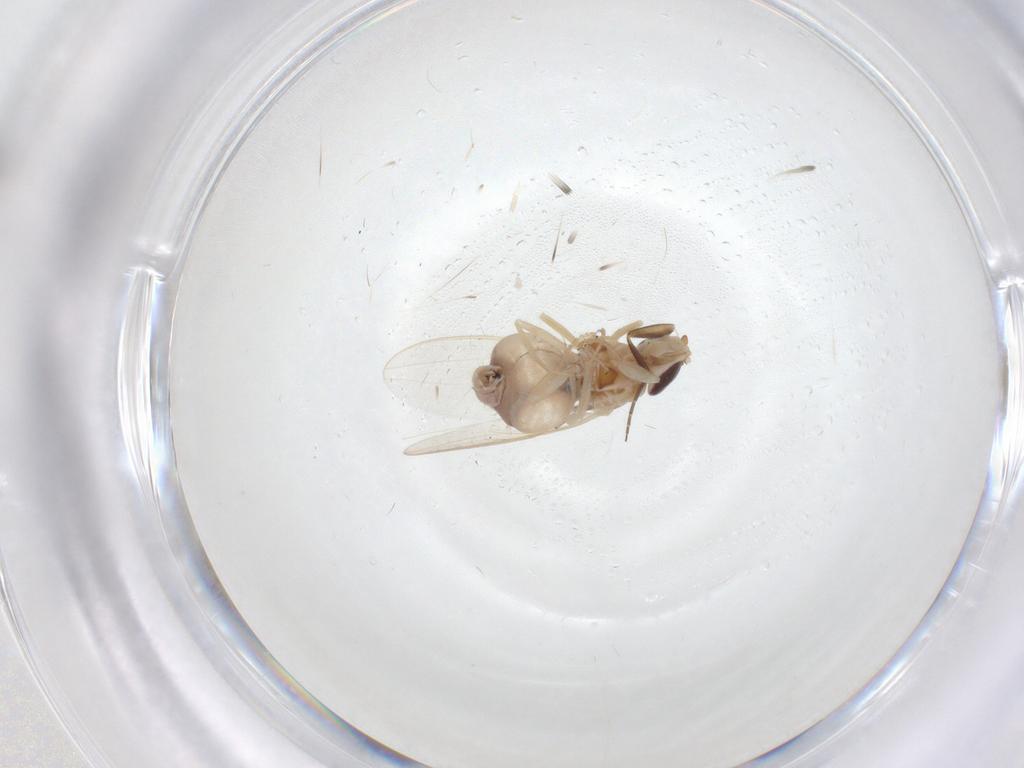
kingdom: Animalia
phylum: Arthropoda
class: Insecta
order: Diptera
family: Chloropidae
